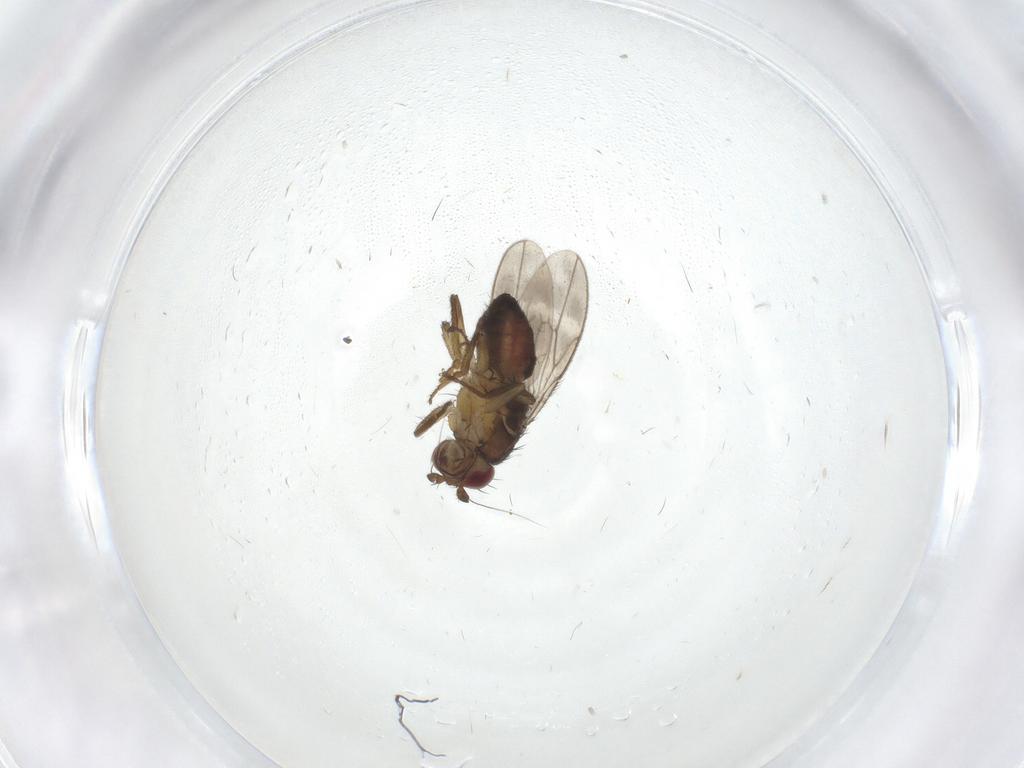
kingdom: Animalia
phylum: Arthropoda
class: Insecta
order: Diptera
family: Sphaeroceridae
